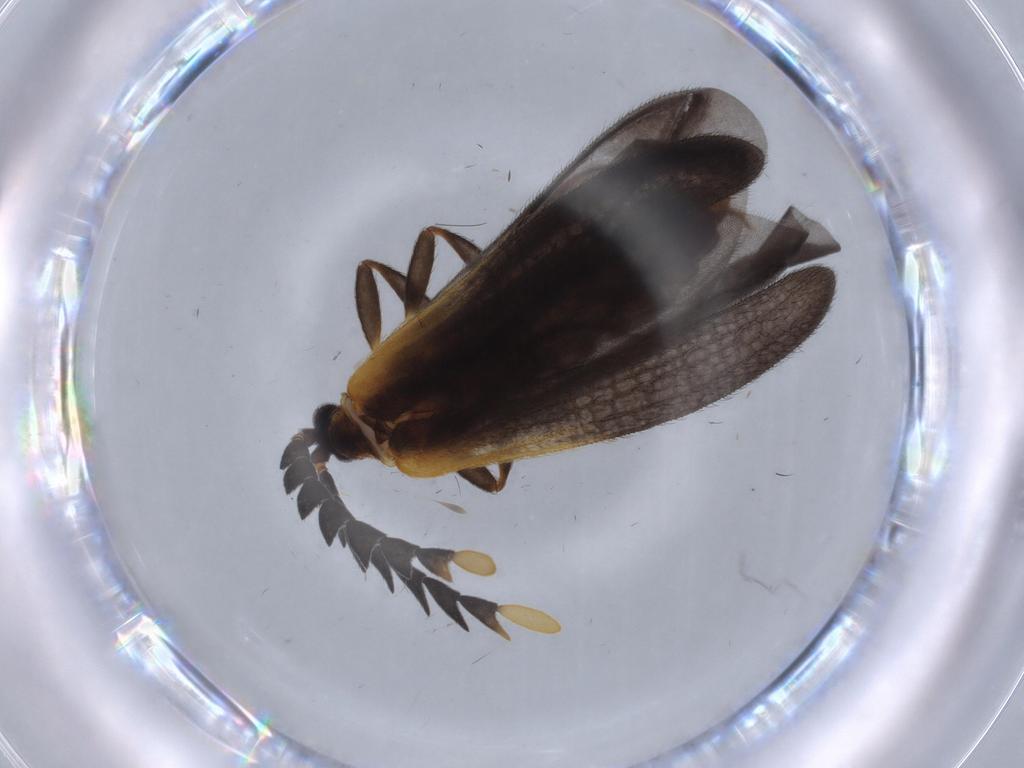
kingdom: Animalia
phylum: Arthropoda
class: Insecta
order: Coleoptera
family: Lycidae
